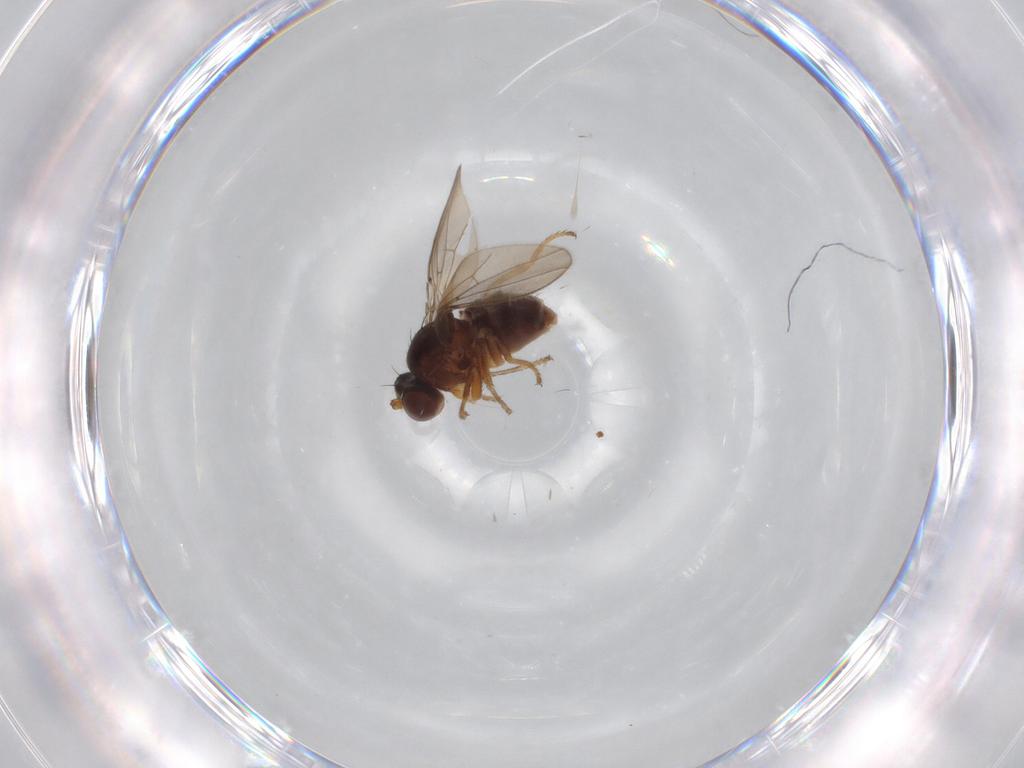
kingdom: Animalia
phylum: Arthropoda
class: Insecta
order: Diptera
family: Ephydridae
